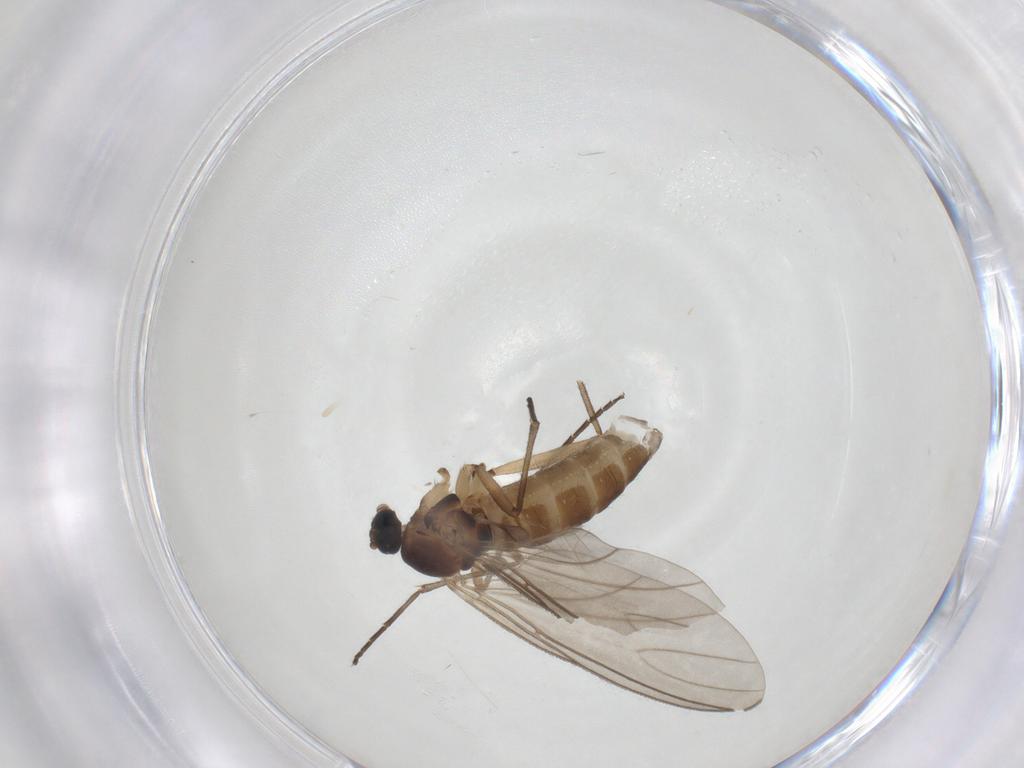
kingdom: Animalia
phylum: Arthropoda
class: Insecta
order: Diptera
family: Sciaridae
